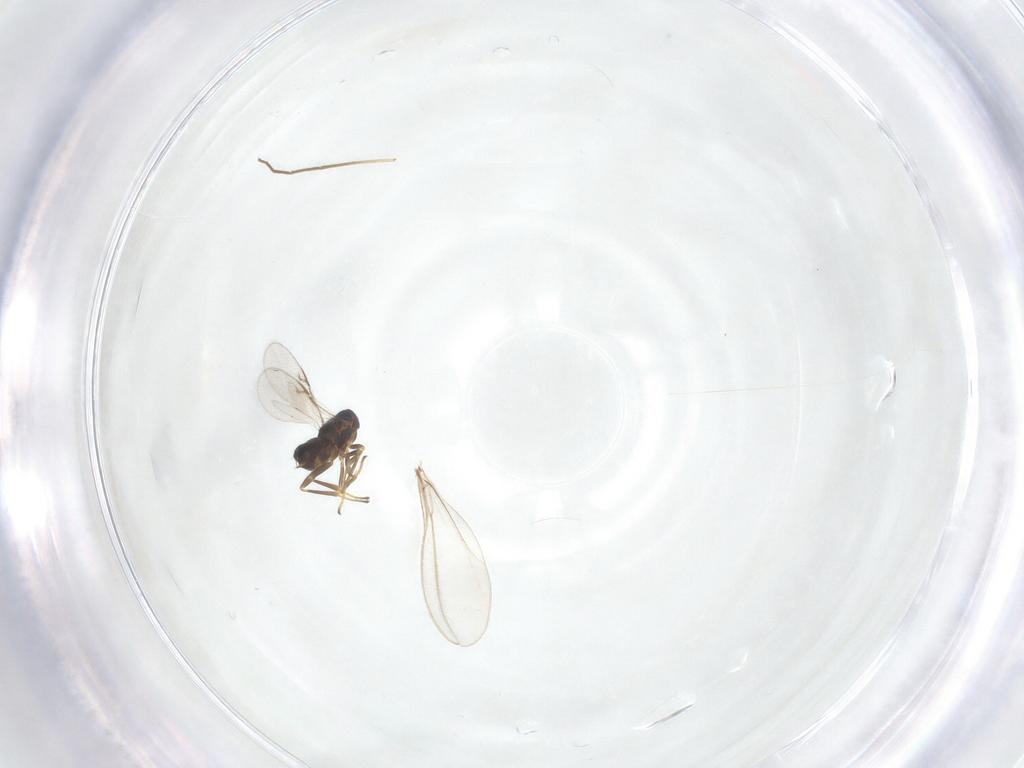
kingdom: Animalia
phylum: Arthropoda
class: Insecta
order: Hymenoptera
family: Encyrtidae
